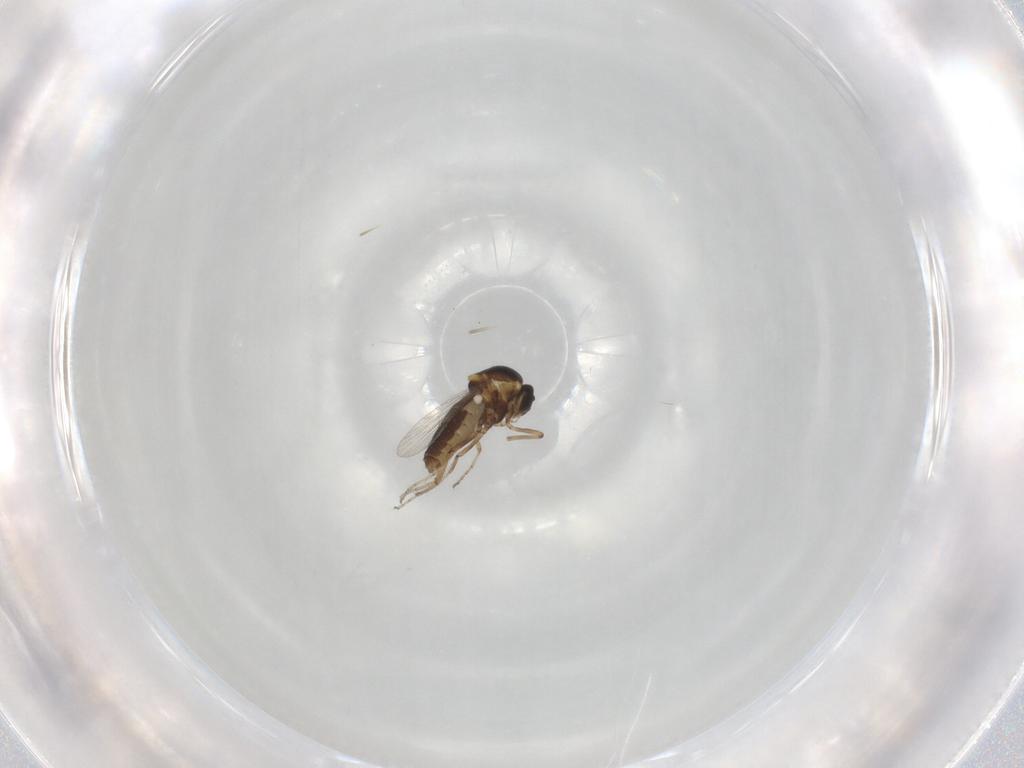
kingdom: Animalia
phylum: Arthropoda
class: Insecta
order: Diptera
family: Ceratopogonidae
